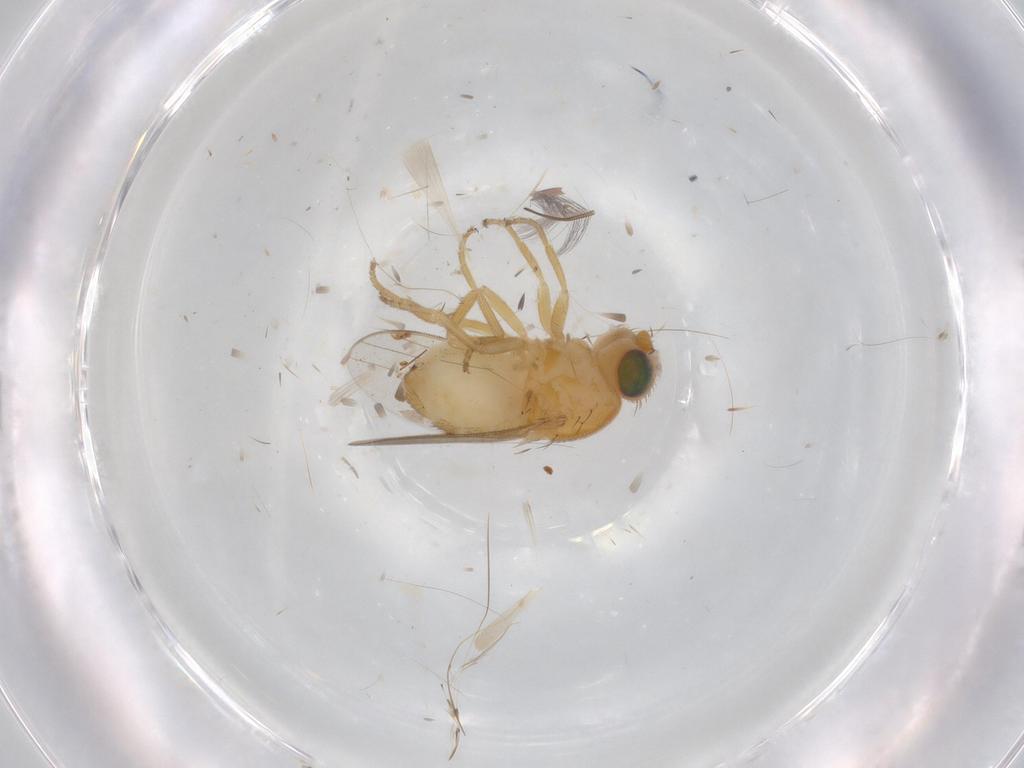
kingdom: Animalia
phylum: Arthropoda
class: Insecta
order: Diptera
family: Chloropidae
